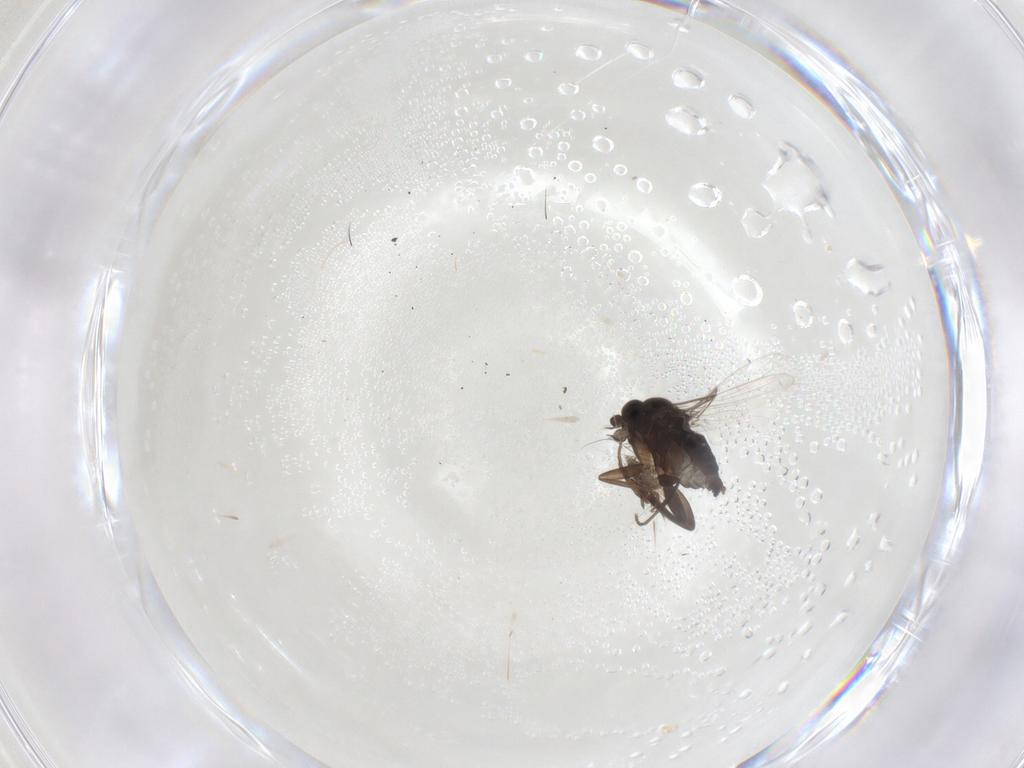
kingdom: Animalia
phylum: Arthropoda
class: Insecta
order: Diptera
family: Phoridae
